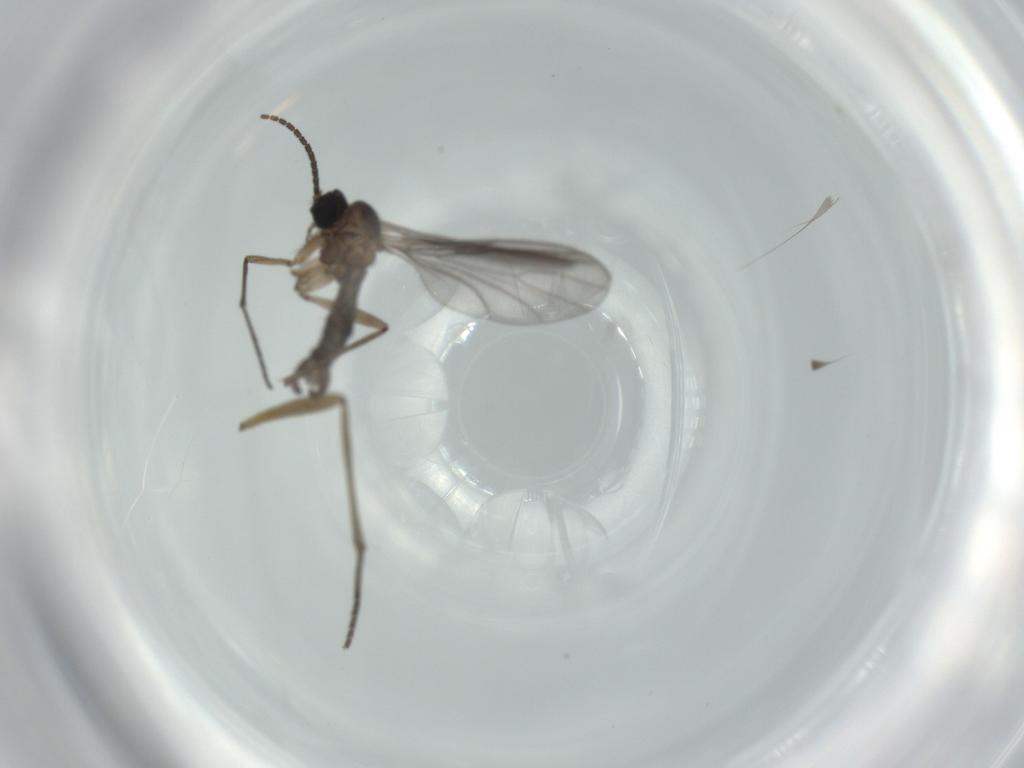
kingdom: Animalia
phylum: Arthropoda
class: Insecta
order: Diptera
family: Sciaridae
